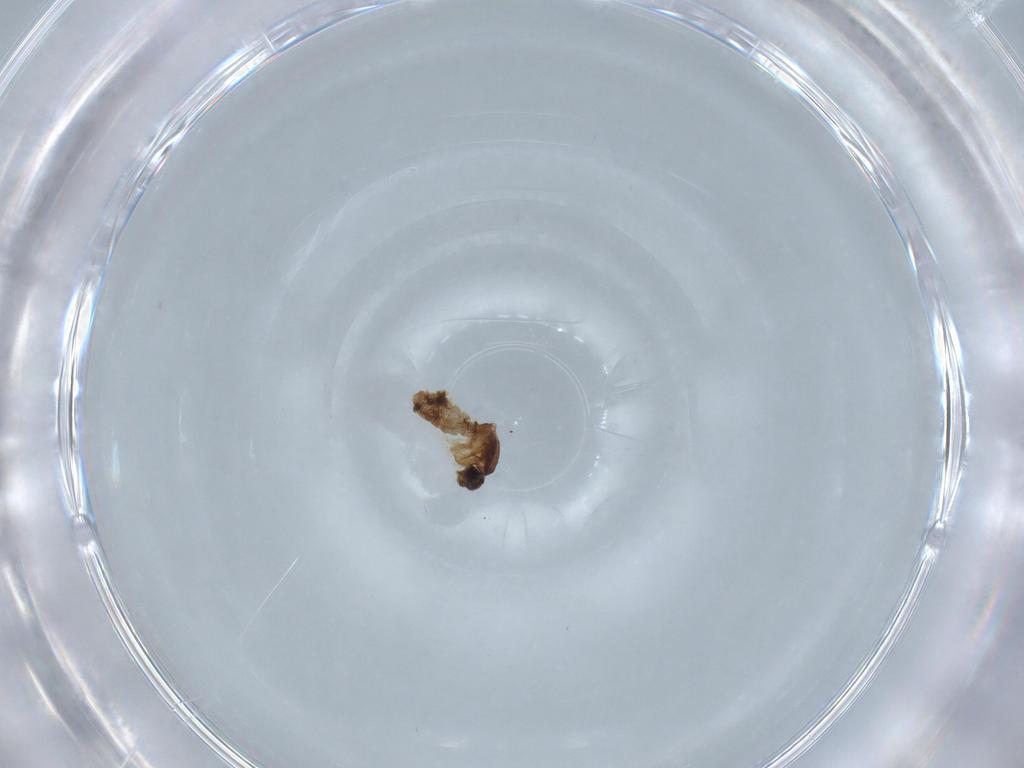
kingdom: Animalia
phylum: Arthropoda
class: Insecta
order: Diptera
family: Ceratopogonidae
